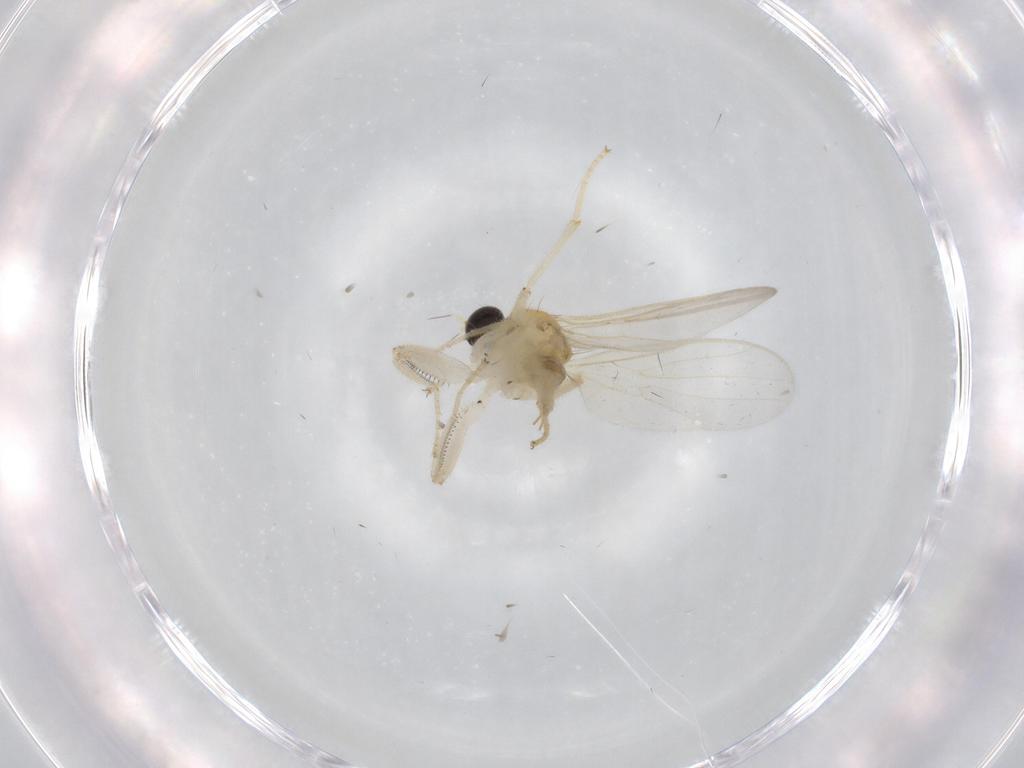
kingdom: Animalia
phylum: Arthropoda
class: Insecta
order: Diptera
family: Cecidomyiidae
